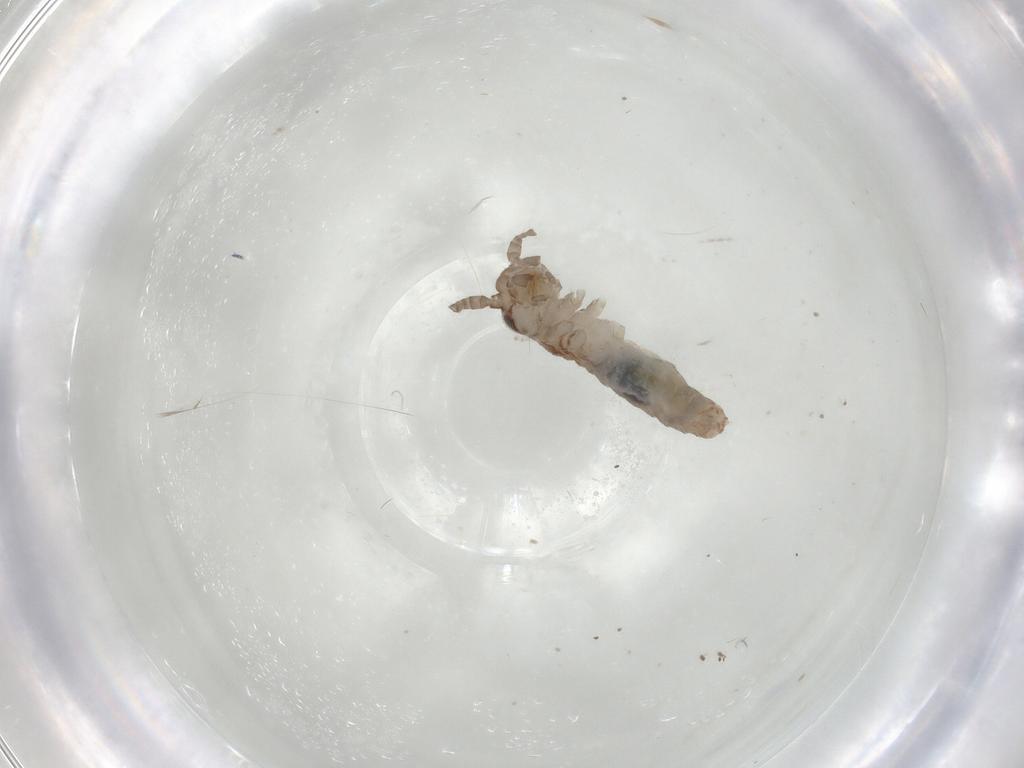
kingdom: Animalia
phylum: Arthropoda
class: Insecta
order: Orthoptera
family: Mogoplistidae
